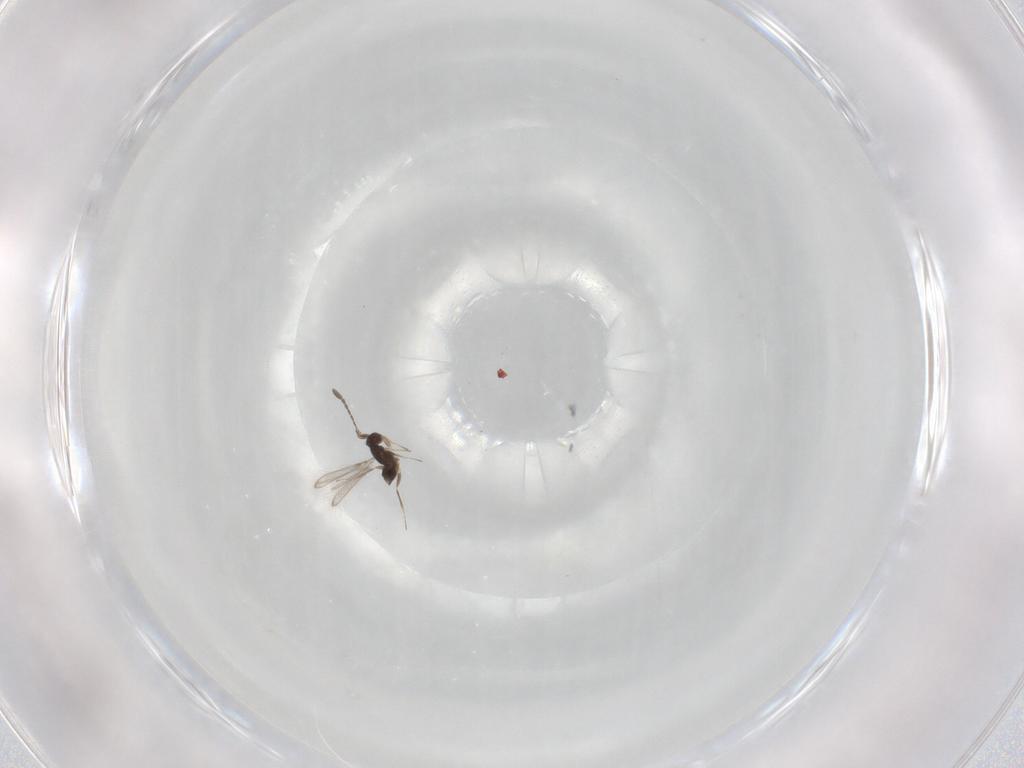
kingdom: Animalia
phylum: Arthropoda
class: Insecta
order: Hymenoptera
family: Mymaridae
